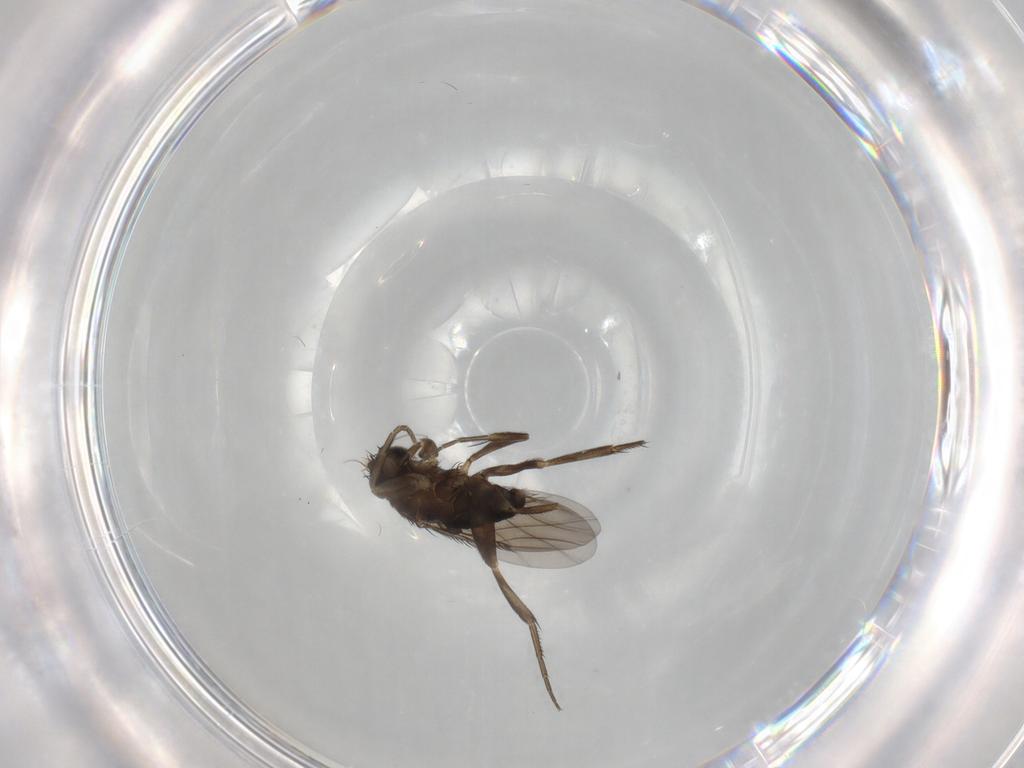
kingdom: Animalia
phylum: Arthropoda
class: Insecta
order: Diptera
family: Phoridae
